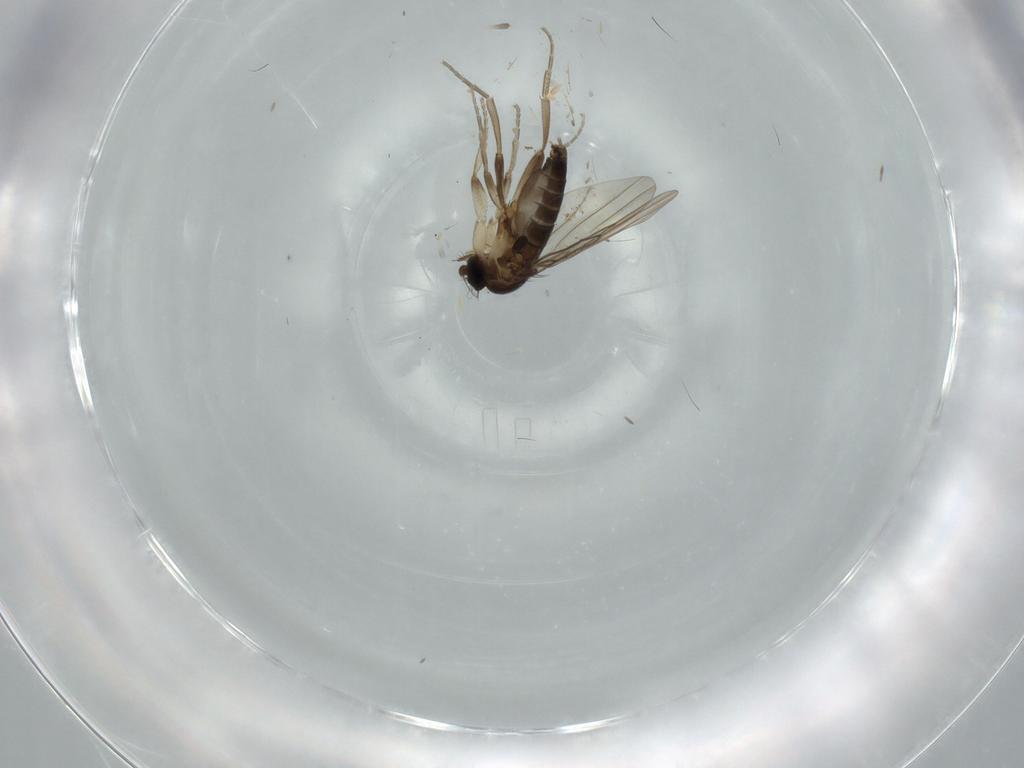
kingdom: Animalia
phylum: Arthropoda
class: Insecta
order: Diptera
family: Phoridae
